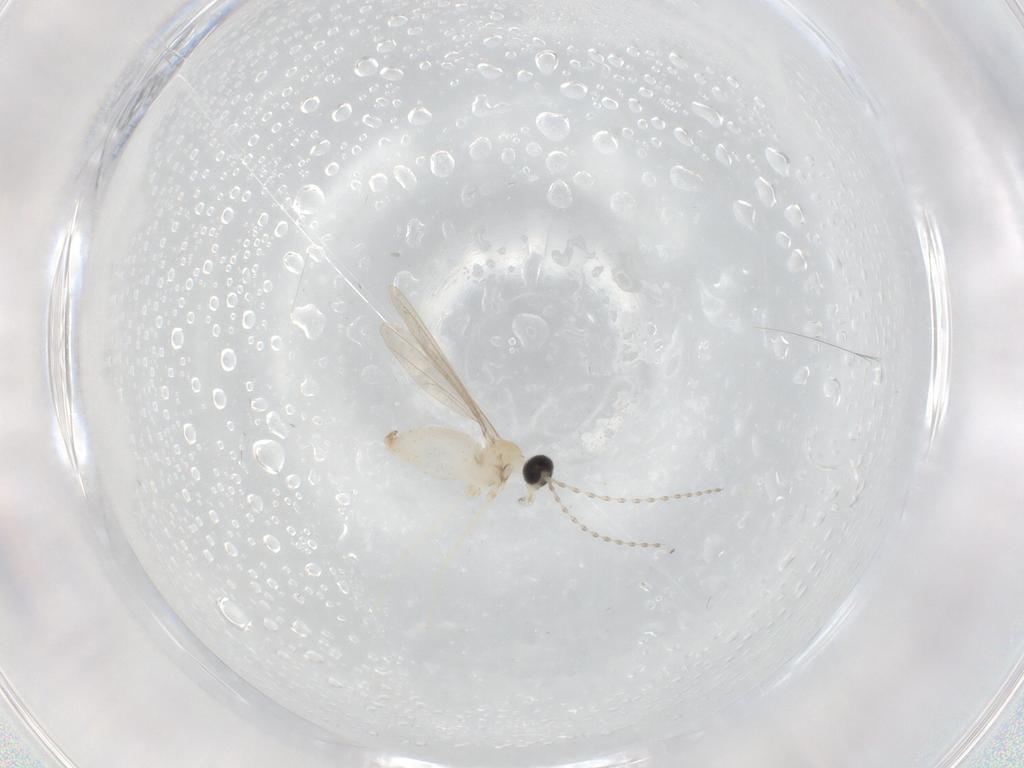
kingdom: Animalia
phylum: Arthropoda
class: Insecta
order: Diptera
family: Cecidomyiidae
